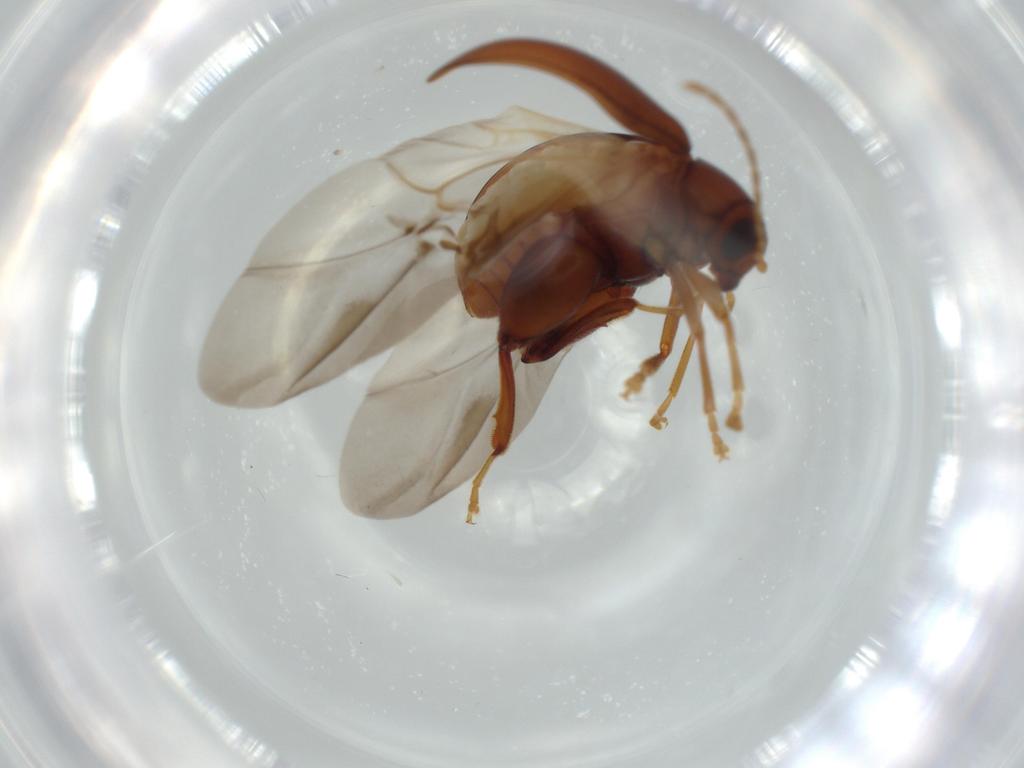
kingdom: Animalia
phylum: Arthropoda
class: Insecta
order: Coleoptera
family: Chrysomelidae
